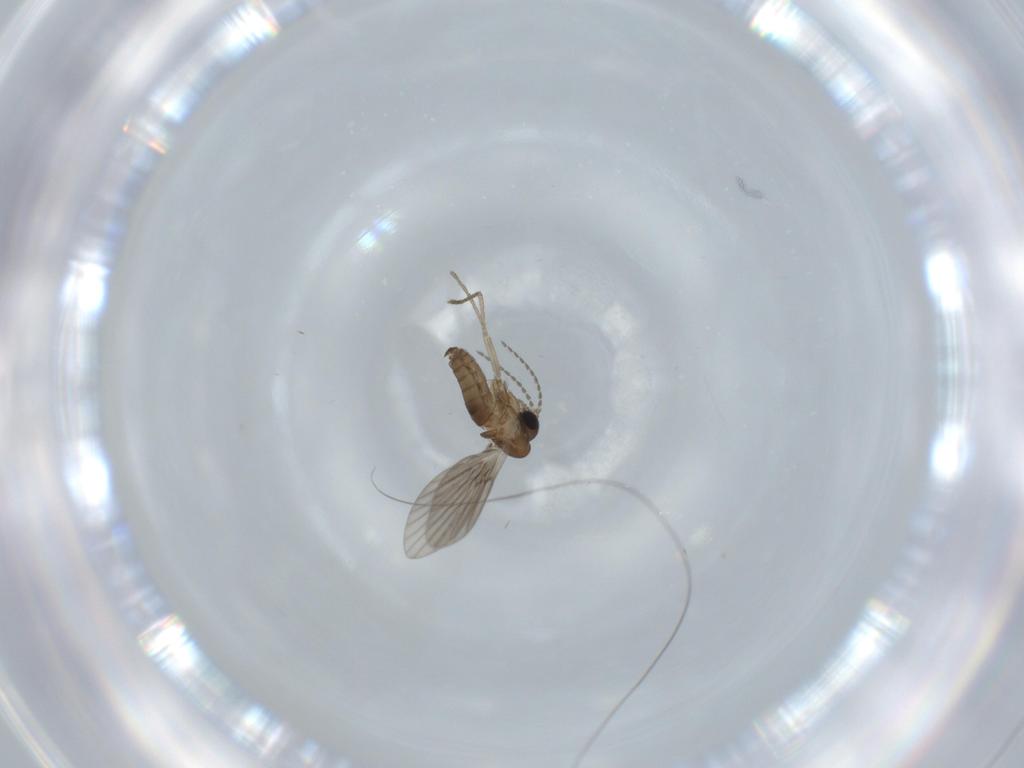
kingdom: Animalia
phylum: Arthropoda
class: Insecta
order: Diptera
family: Psychodidae
